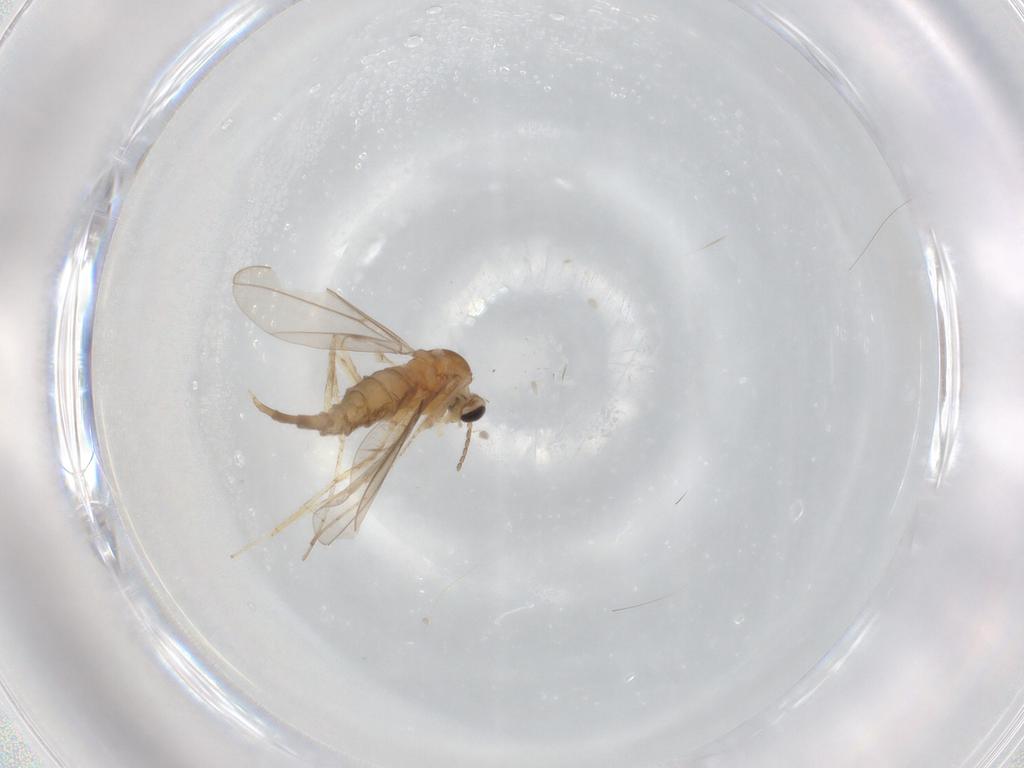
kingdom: Animalia
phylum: Arthropoda
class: Insecta
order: Diptera
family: Cecidomyiidae
